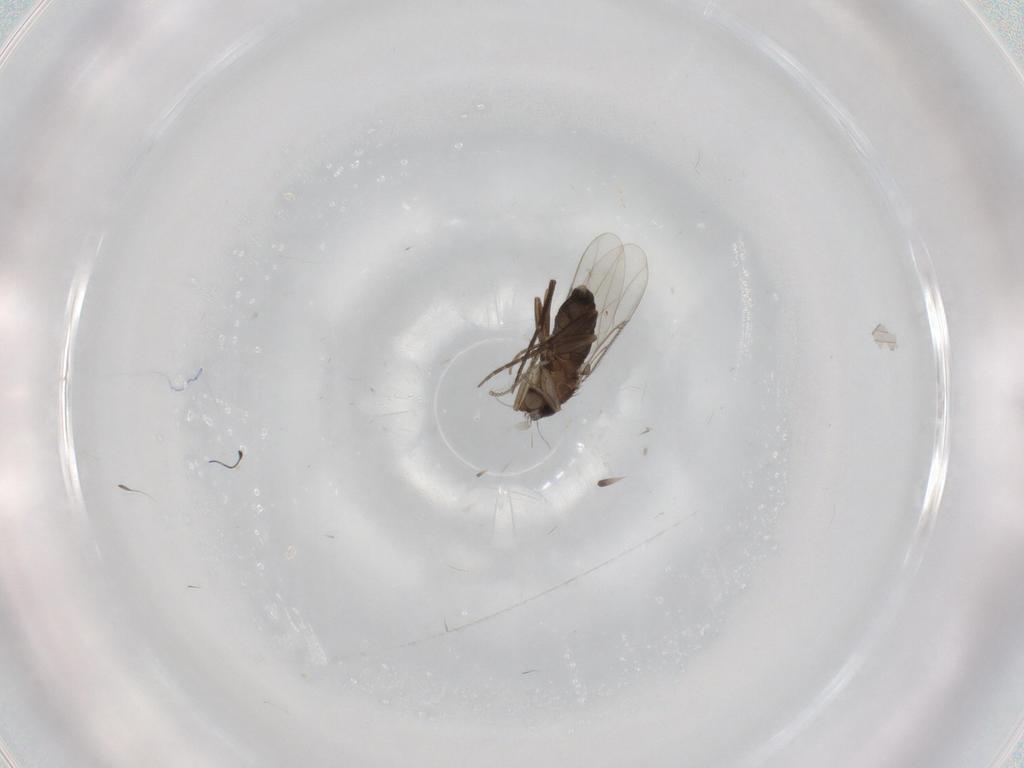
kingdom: Animalia
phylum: Arthropoda
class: Insecta
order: Diptera
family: Phoridae
